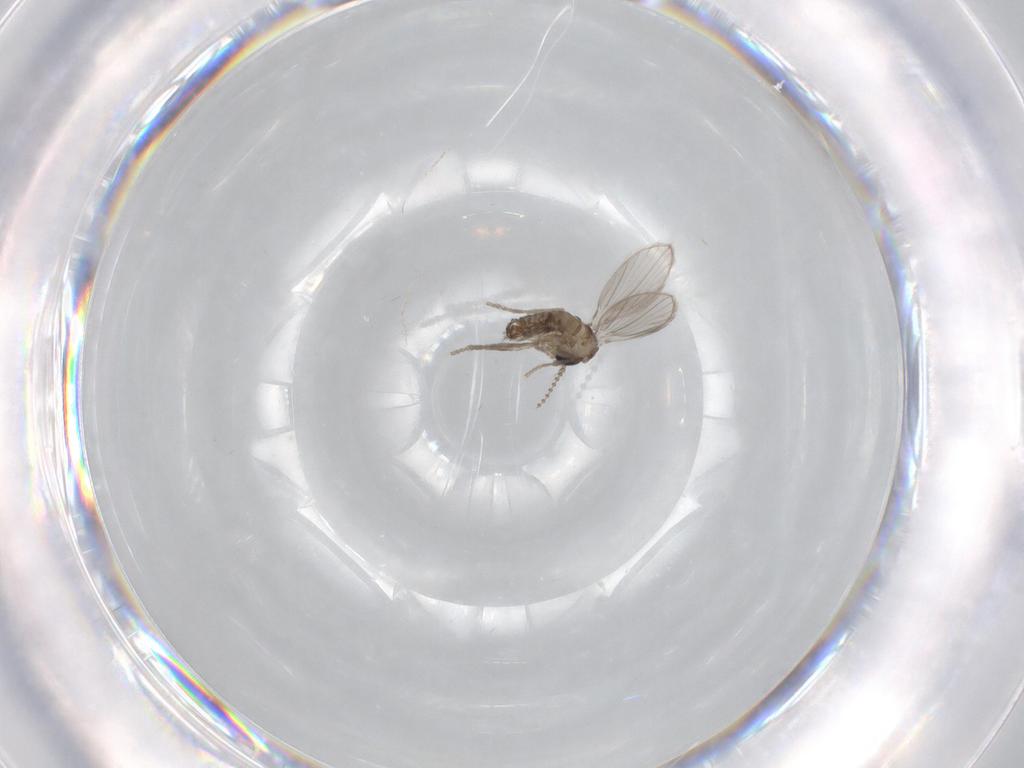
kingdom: Animalia
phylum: Arthropoda
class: Insecta
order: Diptera
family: Psychodidae
